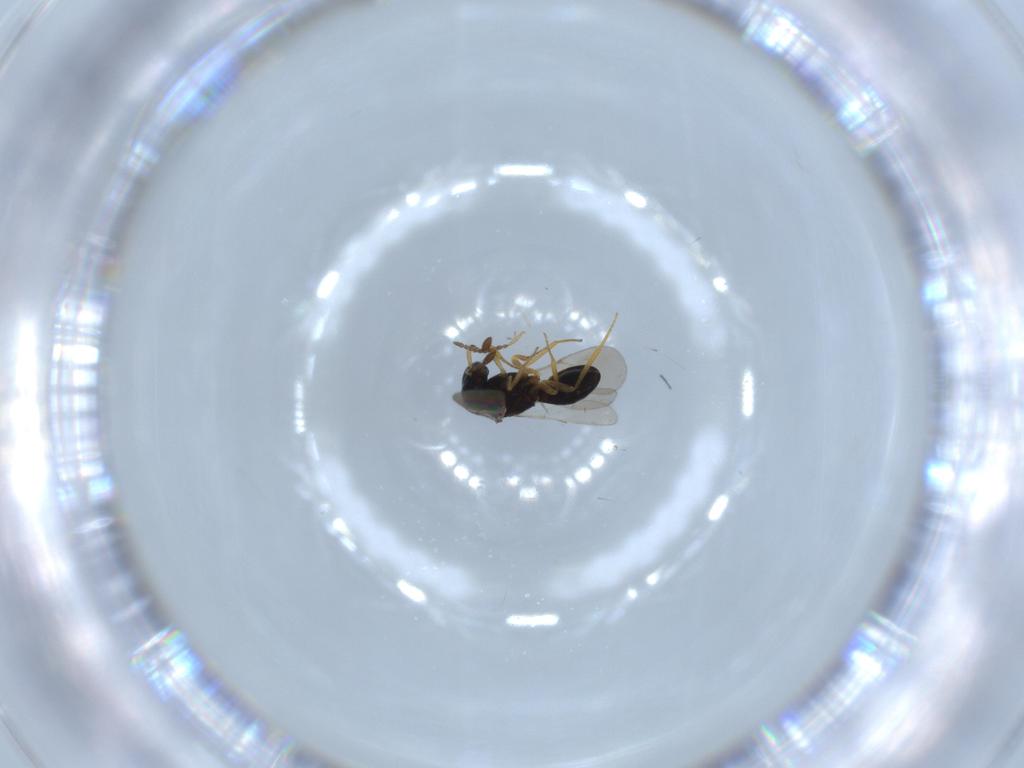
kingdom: Animalia
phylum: Arthropoda
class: Insecta
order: Hymenoptera
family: Scelionidae
